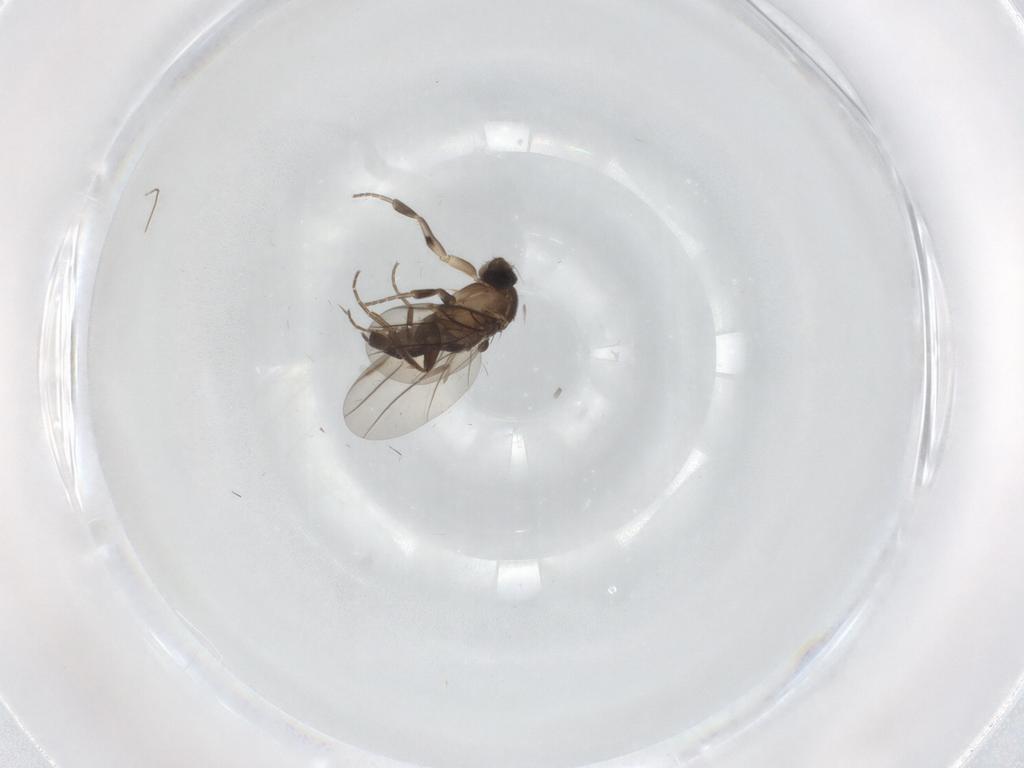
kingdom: Animalia
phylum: Arthropoda
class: Insecta
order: Diptera
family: Phoridae
